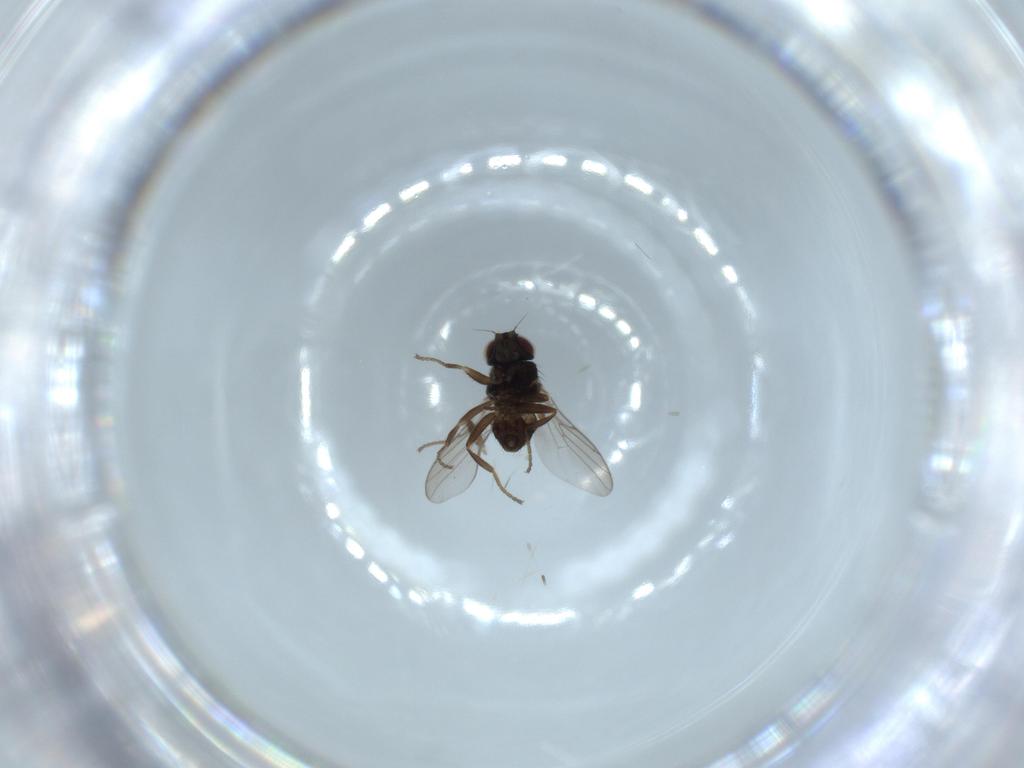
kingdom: Animalia
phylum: Arthropoda
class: Insecta
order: Diptera
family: Chloropidae
